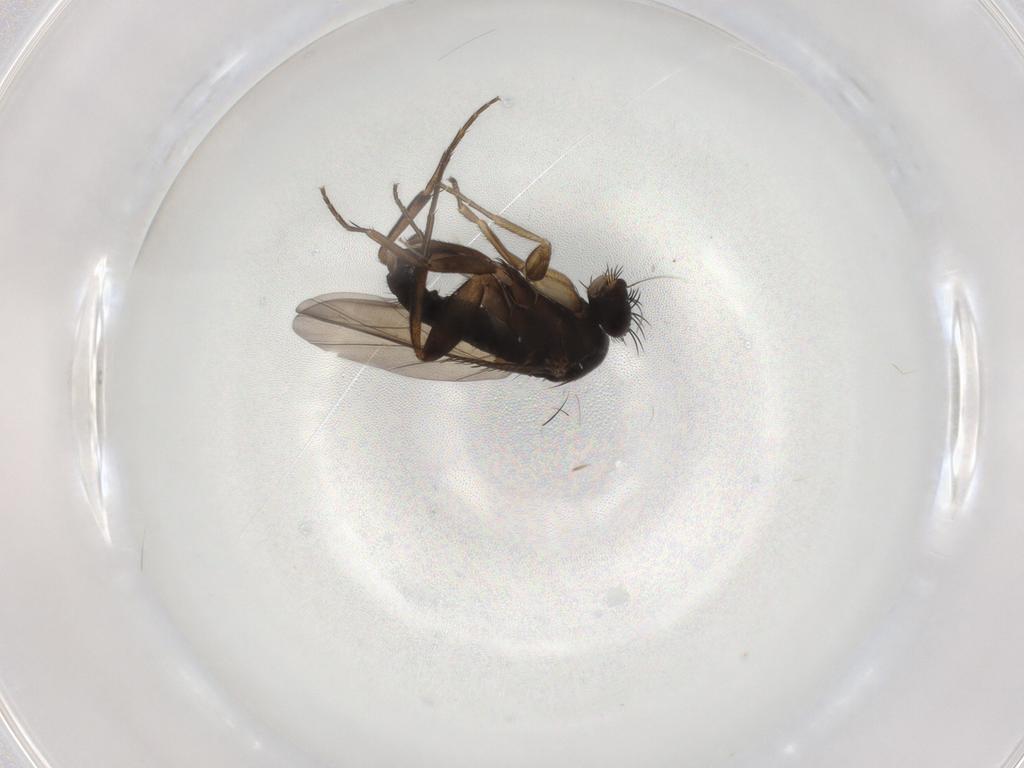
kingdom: Animalia
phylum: Arthropoda
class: Insecta
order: Diptera
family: Phoridae
